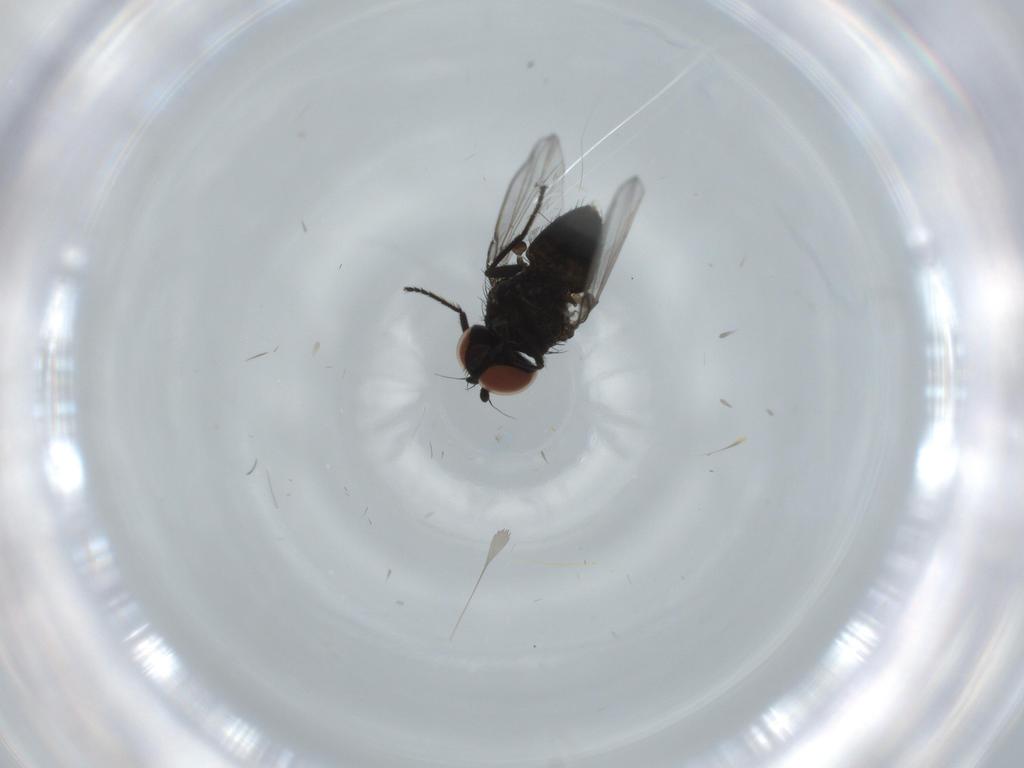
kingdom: Animalia
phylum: Arthropoda
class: Insecta
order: Diptera
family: Milichiidae
